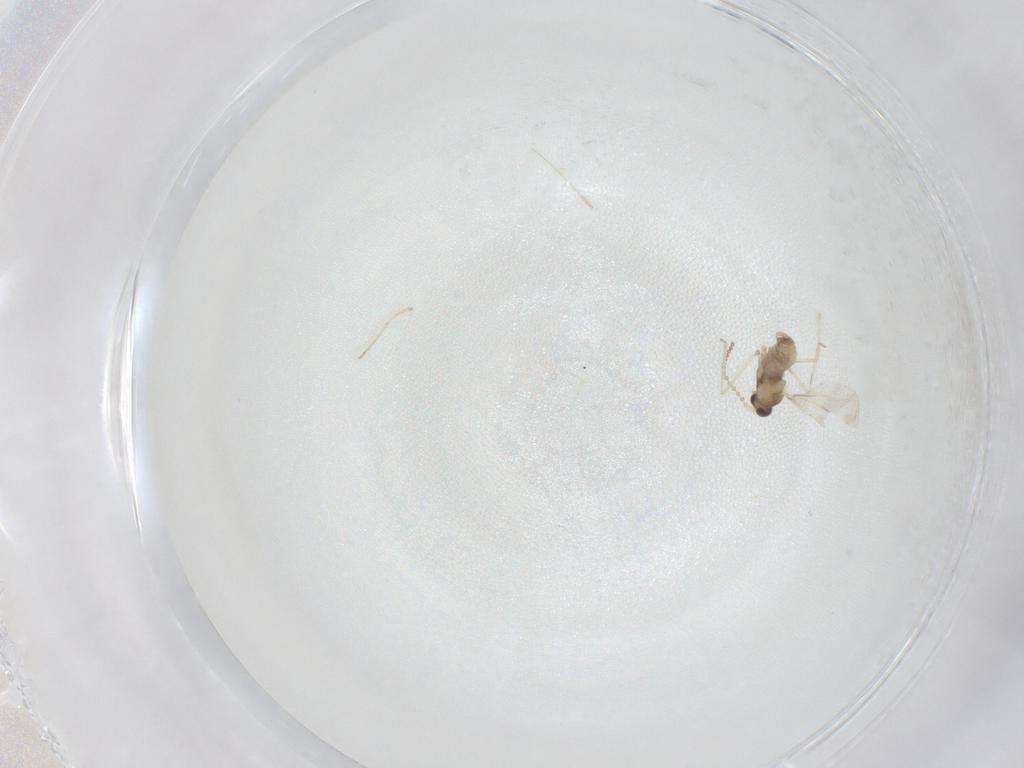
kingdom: Animalia
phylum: Arthropoda
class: Insecta
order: Diptera
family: Cecidomyiidae
